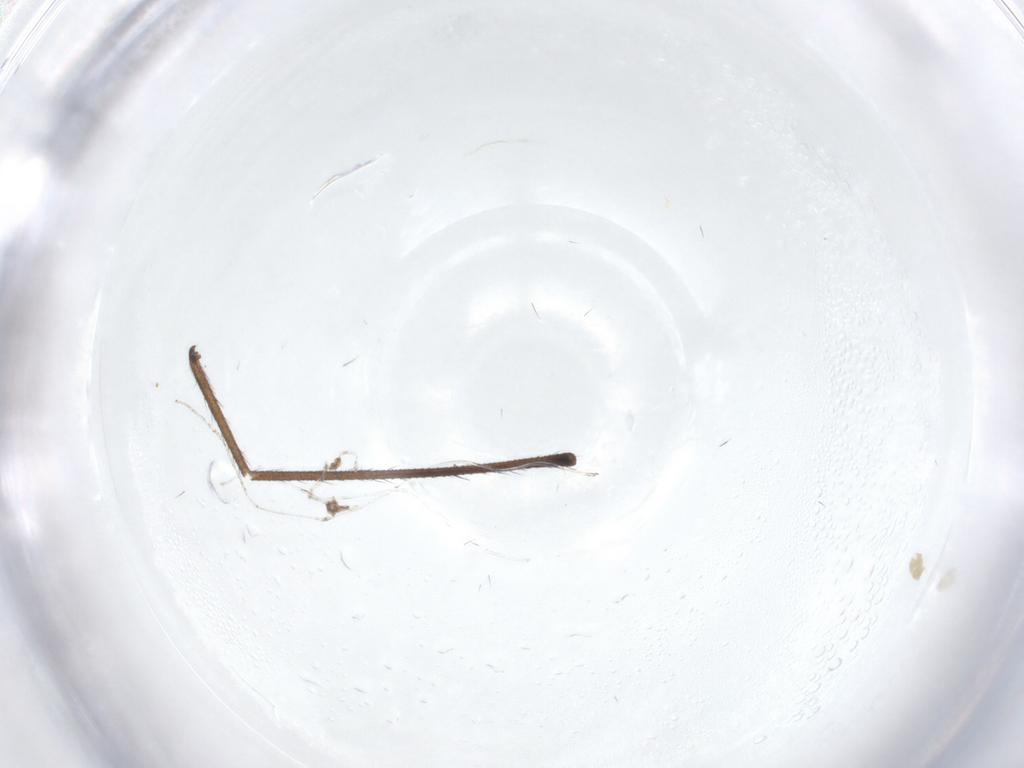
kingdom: Animalia
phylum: Arthropoda
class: Insecta
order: Diptera
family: Limoniidae
